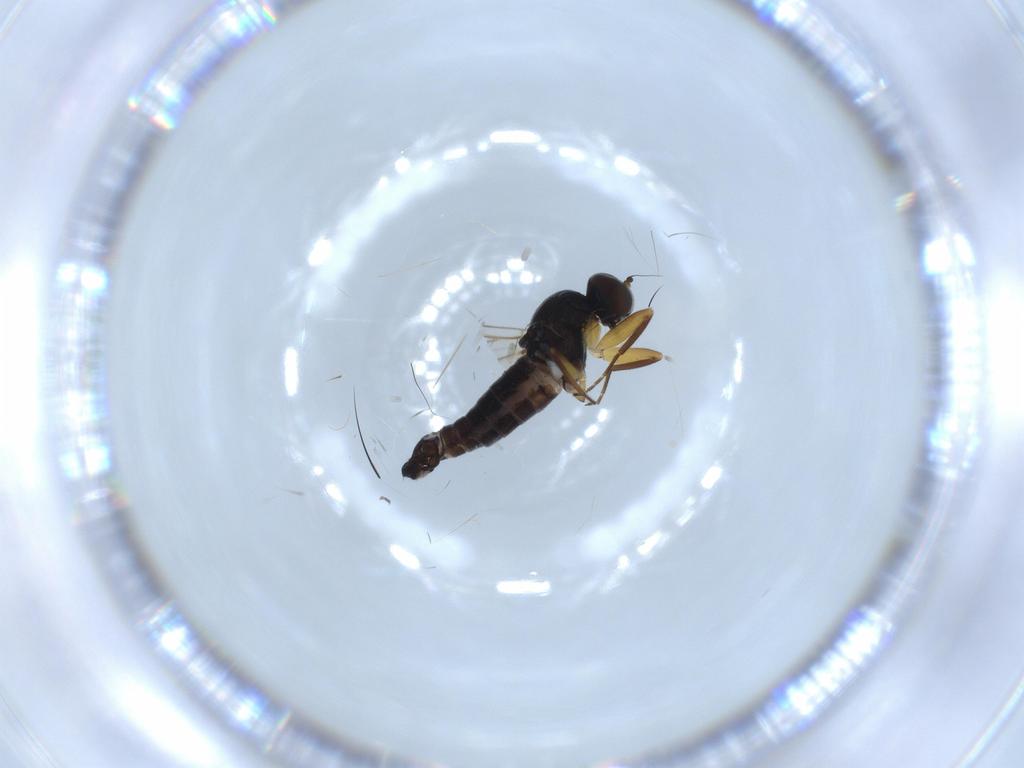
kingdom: Animalia
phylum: Arthropoda
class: Insecta
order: Diptera
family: Hybotidae
